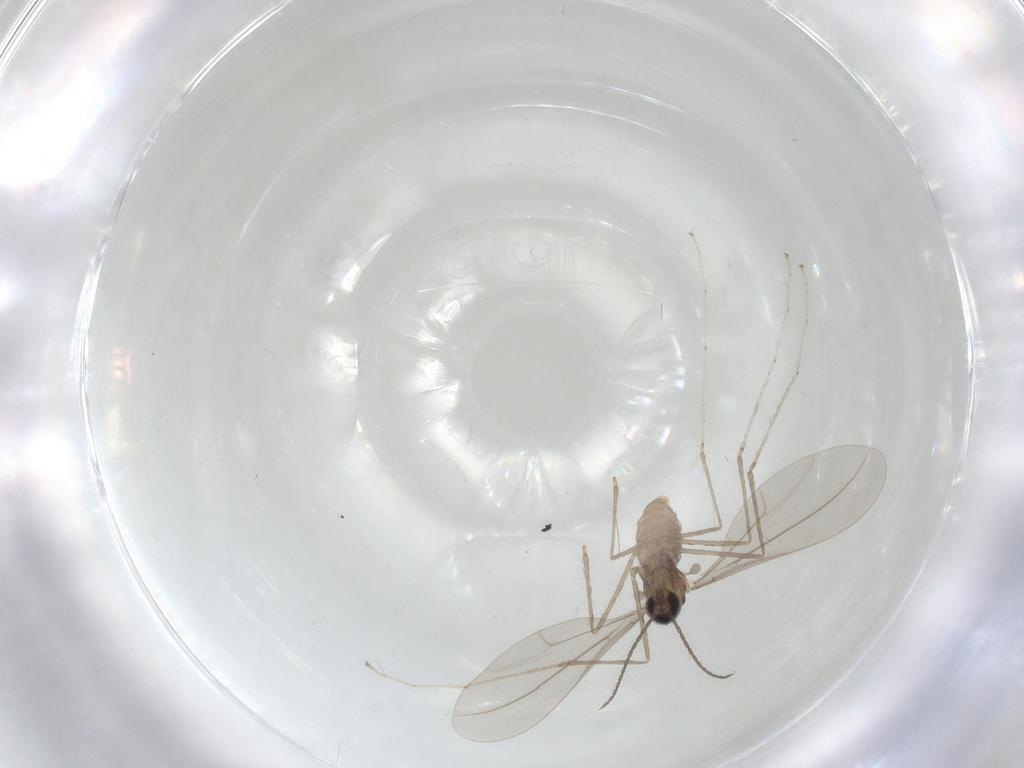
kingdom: Animalia
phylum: Arthropoda
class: Insecta
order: Diptera
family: Cecidomyiidae
